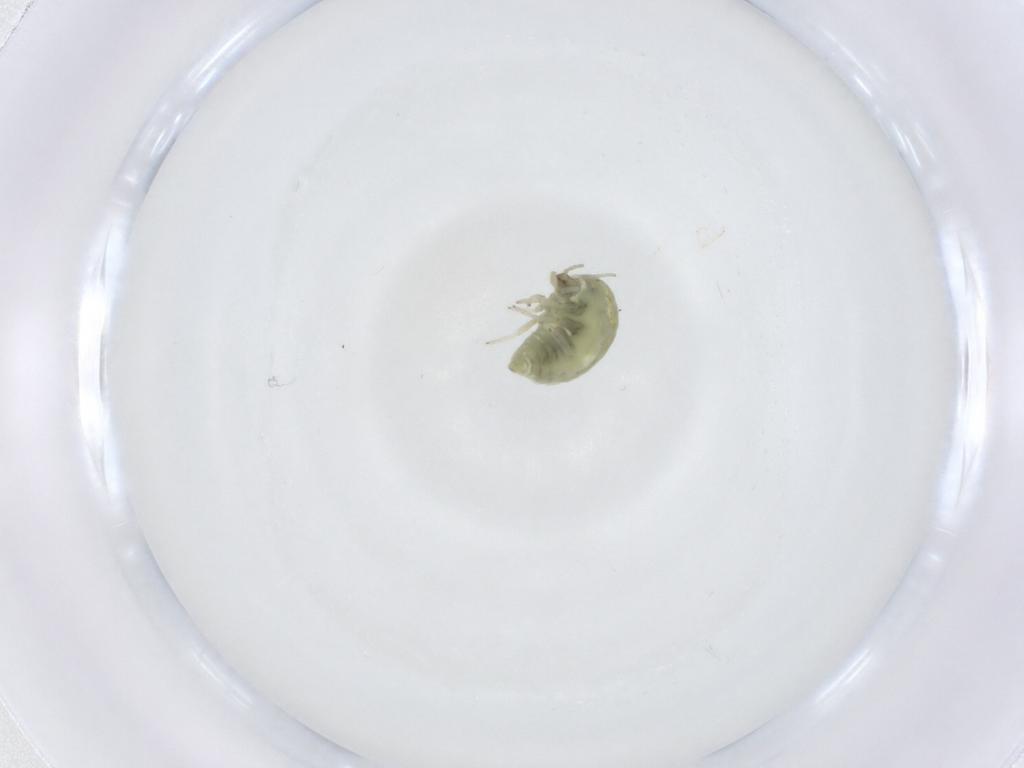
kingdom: Animalia
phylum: Arthropoda
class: Insecta
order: Neuroptera
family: Coniopterygidae
